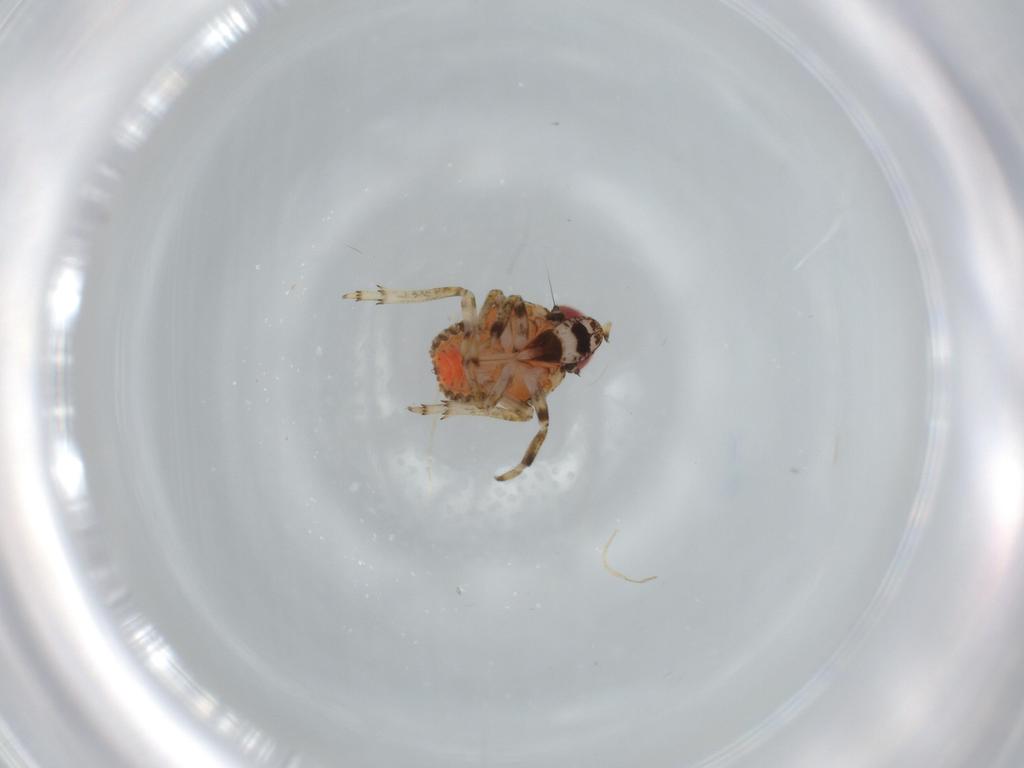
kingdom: Animalia
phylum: Arthropoda
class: Insecta
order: Hemiptera
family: Issidae
